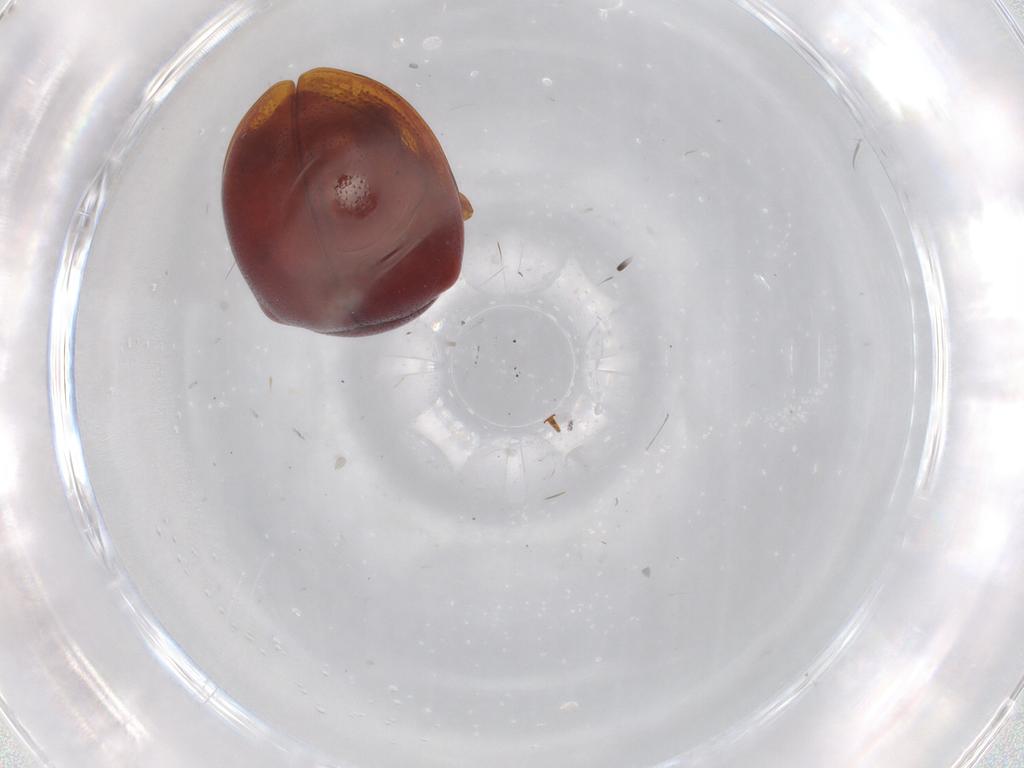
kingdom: Animalia
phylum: Arthropoda
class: Insecta
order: Coleoptera
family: Chrysomelidae
